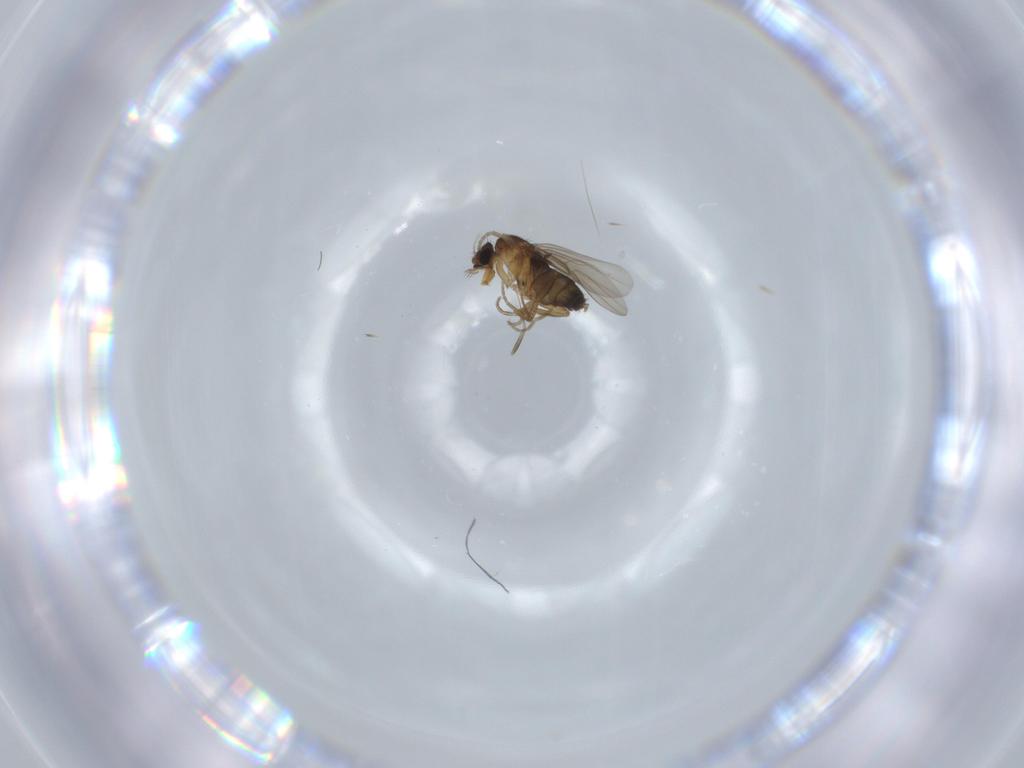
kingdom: Animalia
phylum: Arthropoda
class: Insecta
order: Diptera
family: Phoridae
